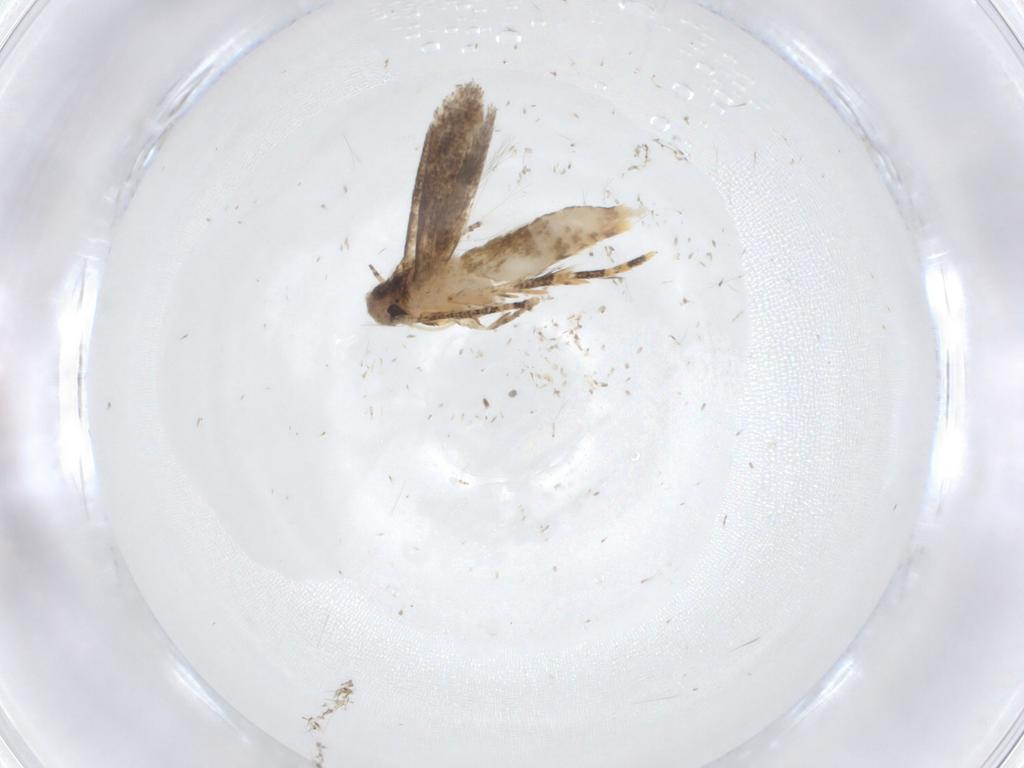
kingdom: Animalia
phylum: Arthropoda
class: Insecta
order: Lepidoptera
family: Momphidae
